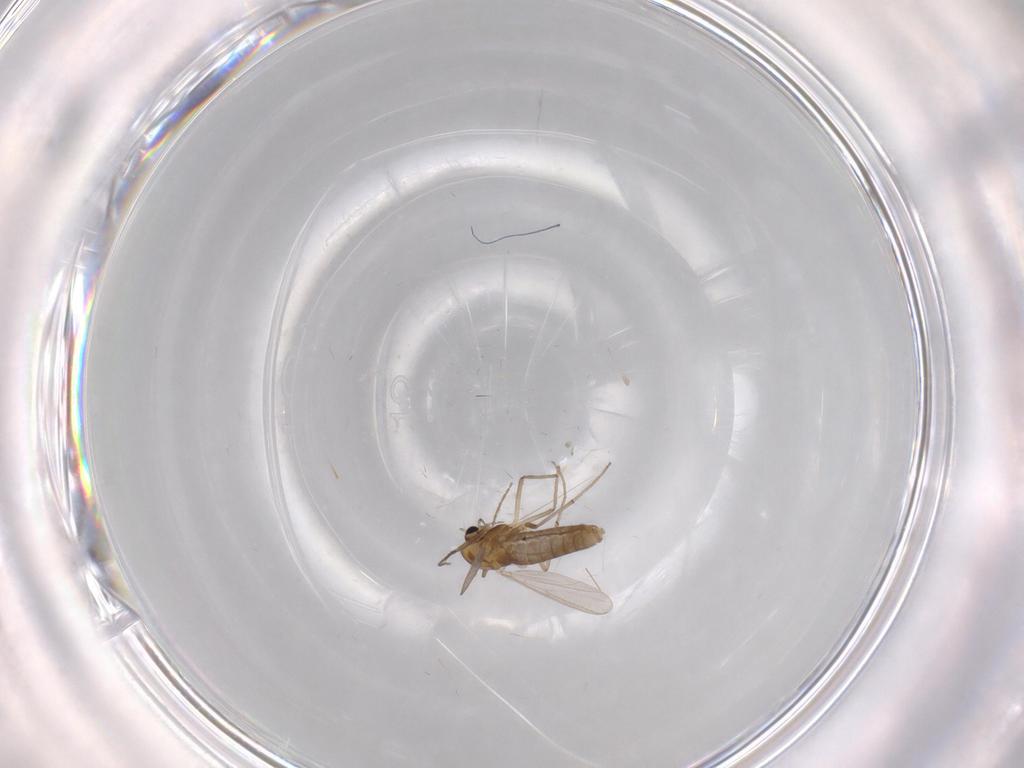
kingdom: Animalia
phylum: Arthropoda
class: Insecta
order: Diptera
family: Chironomidae
